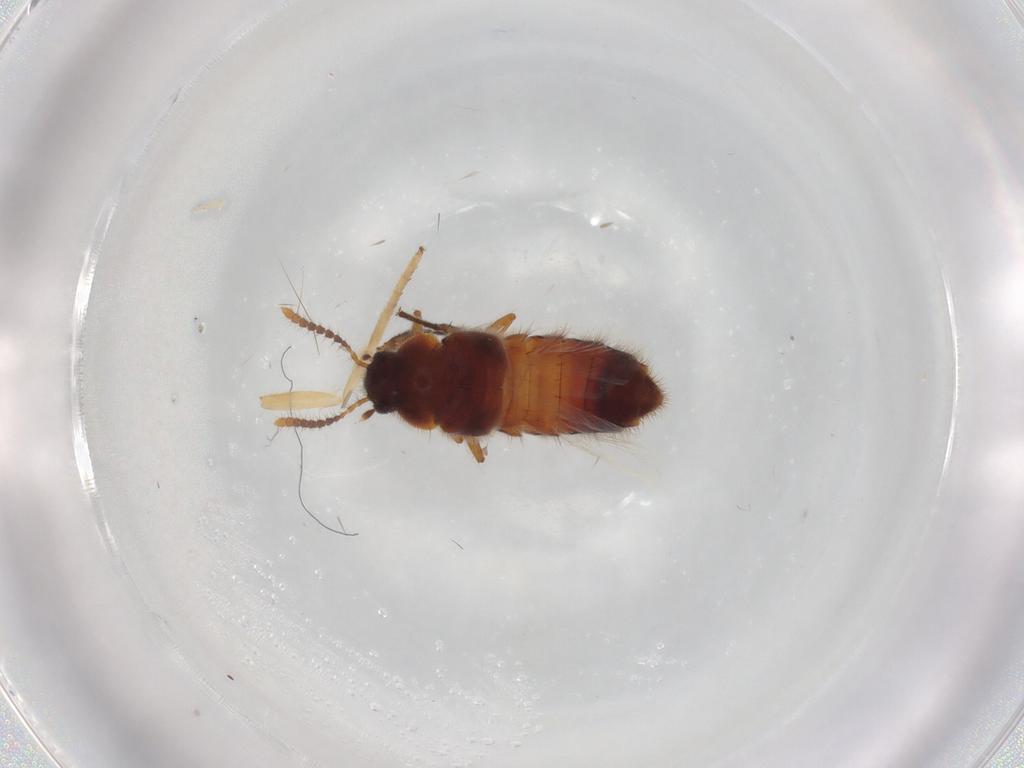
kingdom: Animalia
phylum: Arthropoda
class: Insecta
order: Coleoptera
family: Staphylinidae
